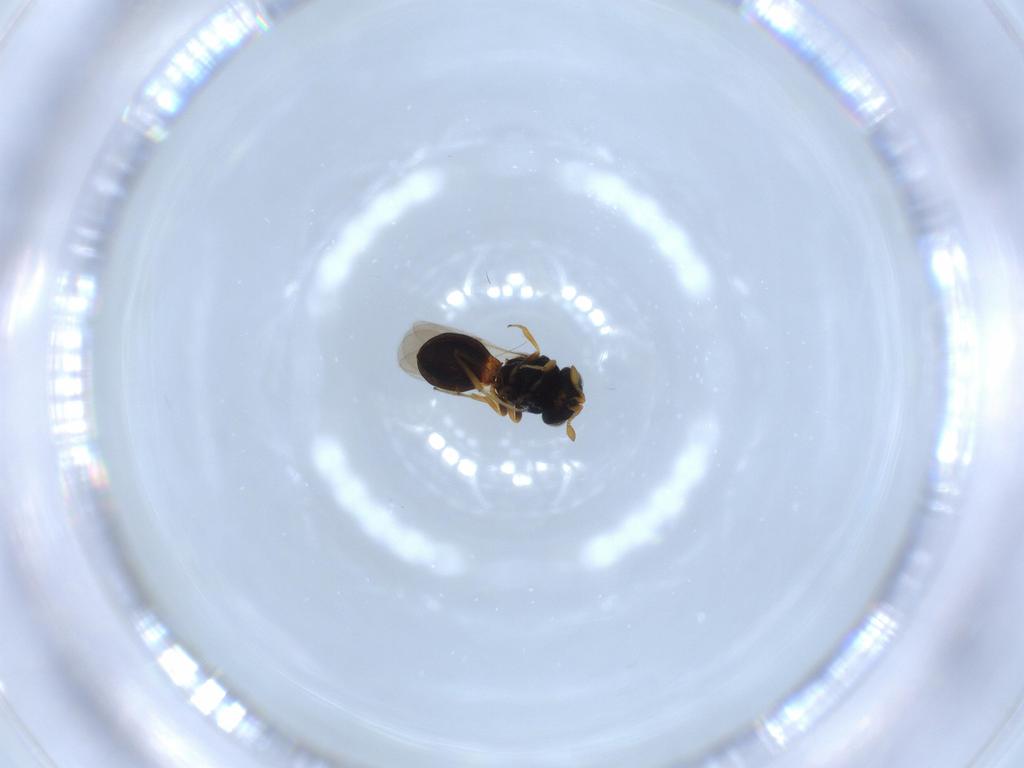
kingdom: Animalia
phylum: Arthropoda
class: Insecta
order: Hymenoptera
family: Scelionidae
